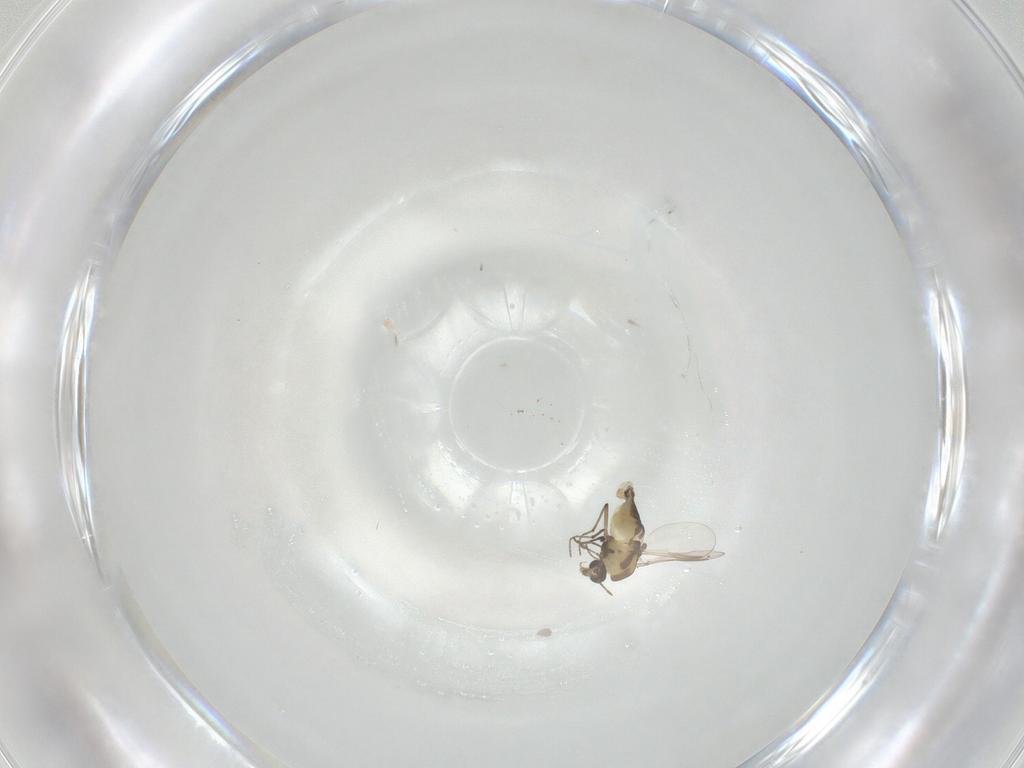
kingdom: Animalia
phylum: Arthropoda
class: Insecta
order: Diptera
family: Chironomidae
